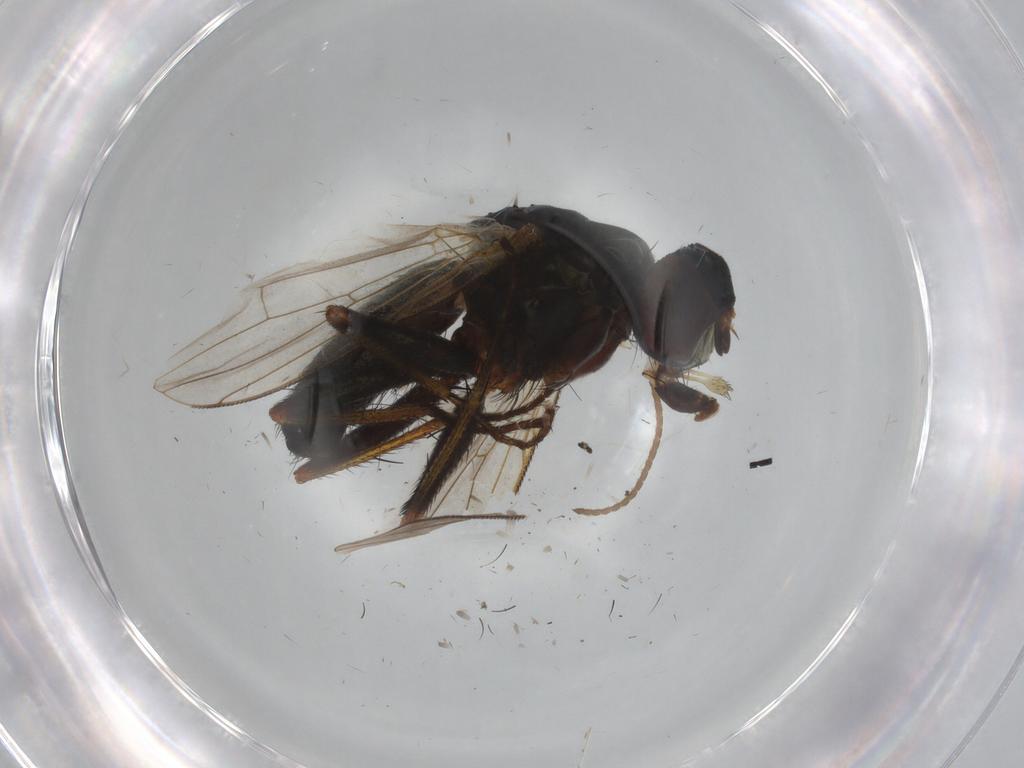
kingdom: Animalia
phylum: Arthropoda
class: Insecta
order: Diptera
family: Muscidae
